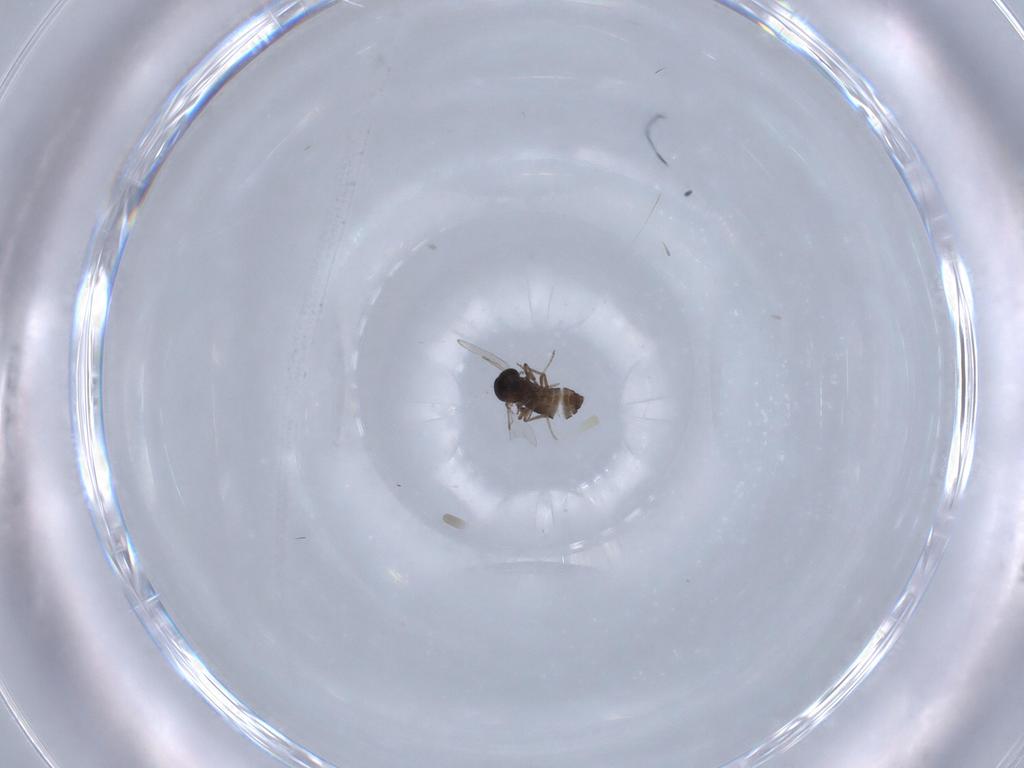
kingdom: Animalia
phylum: Arthropoda
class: Insecta
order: Diptera
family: Ceratopogonidae
